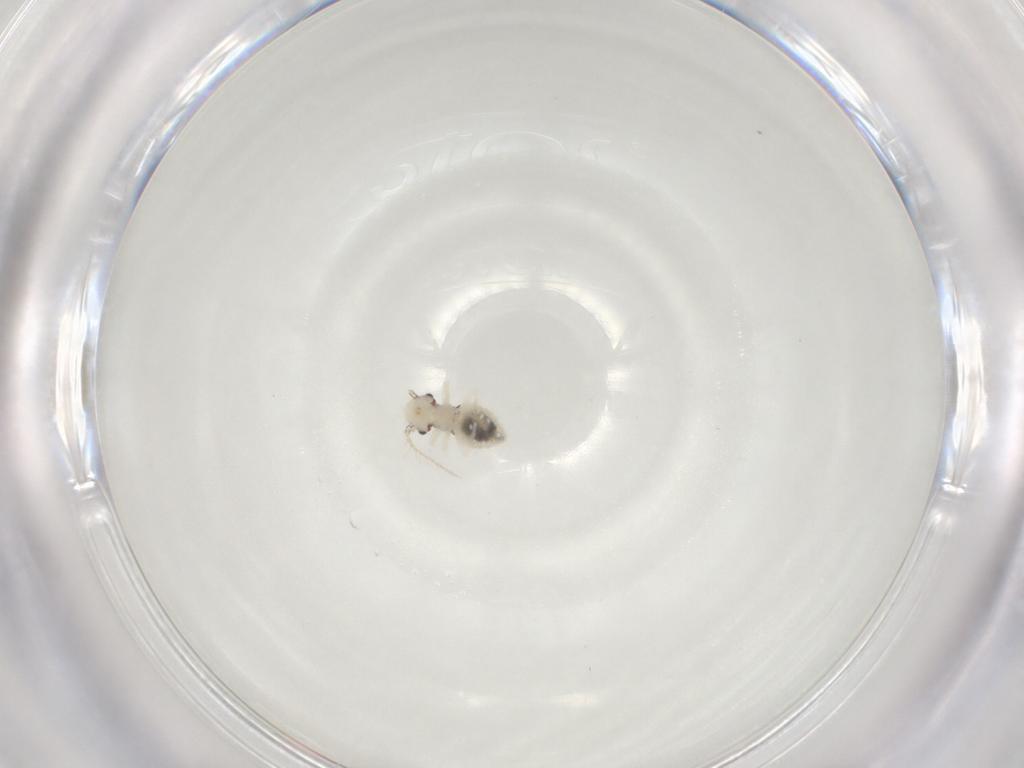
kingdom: Animalia
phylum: Arthropoda
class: Insecta
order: Psocodea
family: Philotarsidae
